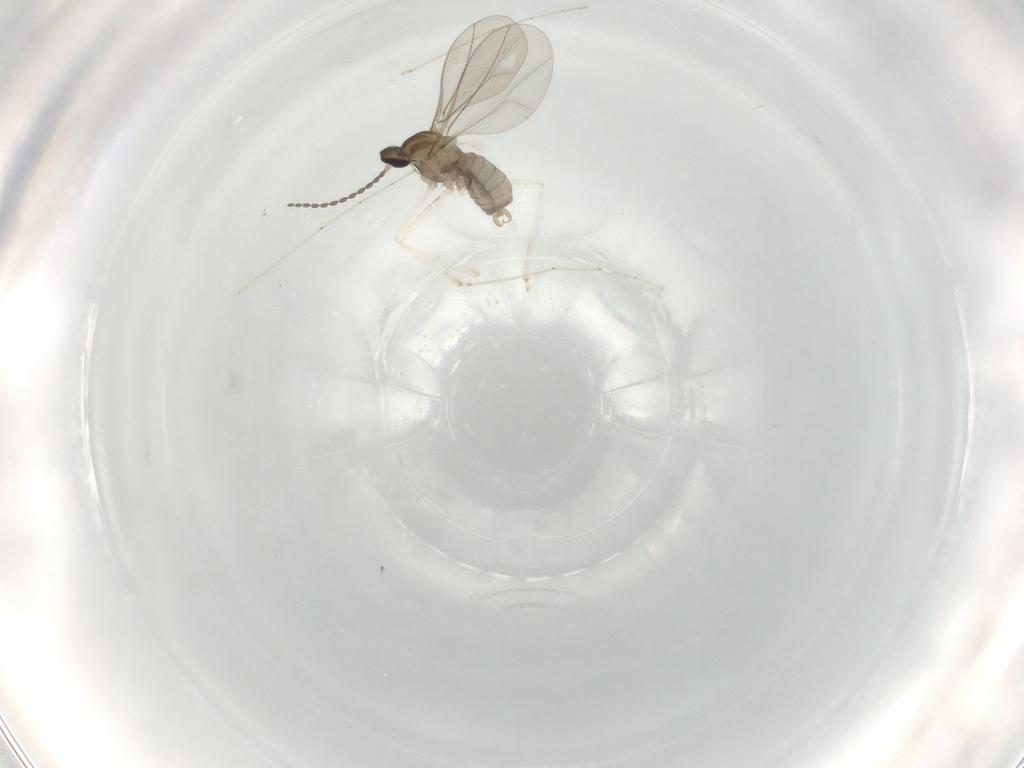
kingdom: Animalia
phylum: Arthropoda
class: Insecta
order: Diptera
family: Cecidomyiidae
